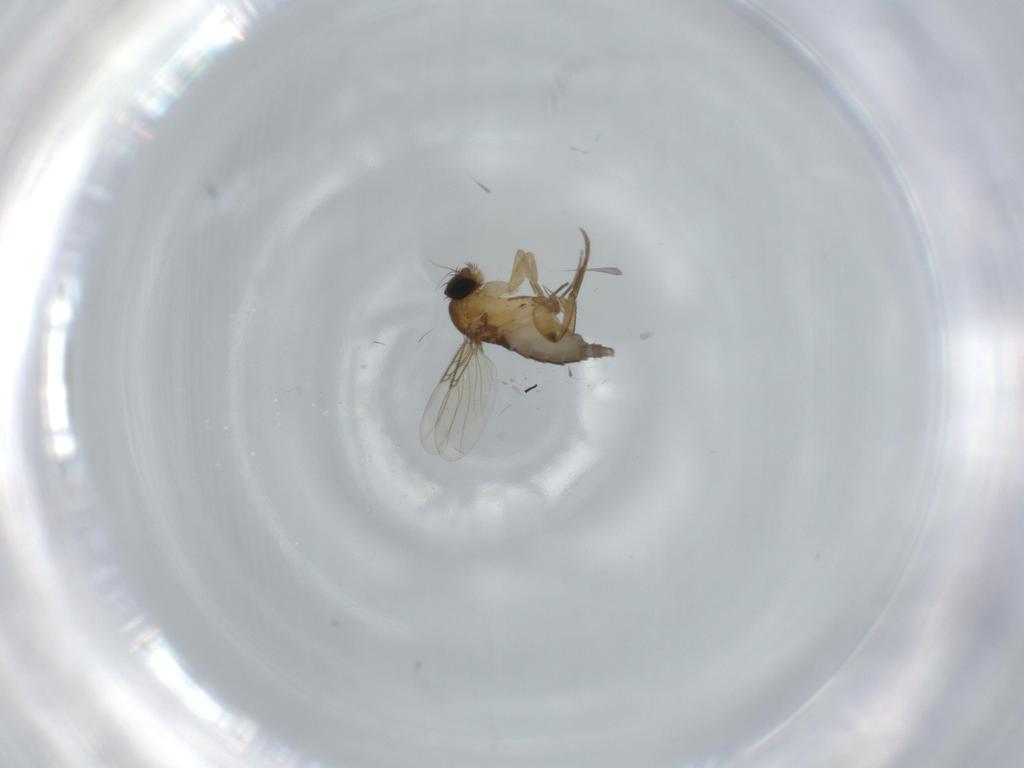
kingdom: Animalia
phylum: Arthropoda
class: Insecta
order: Diptera
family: Phoridae
